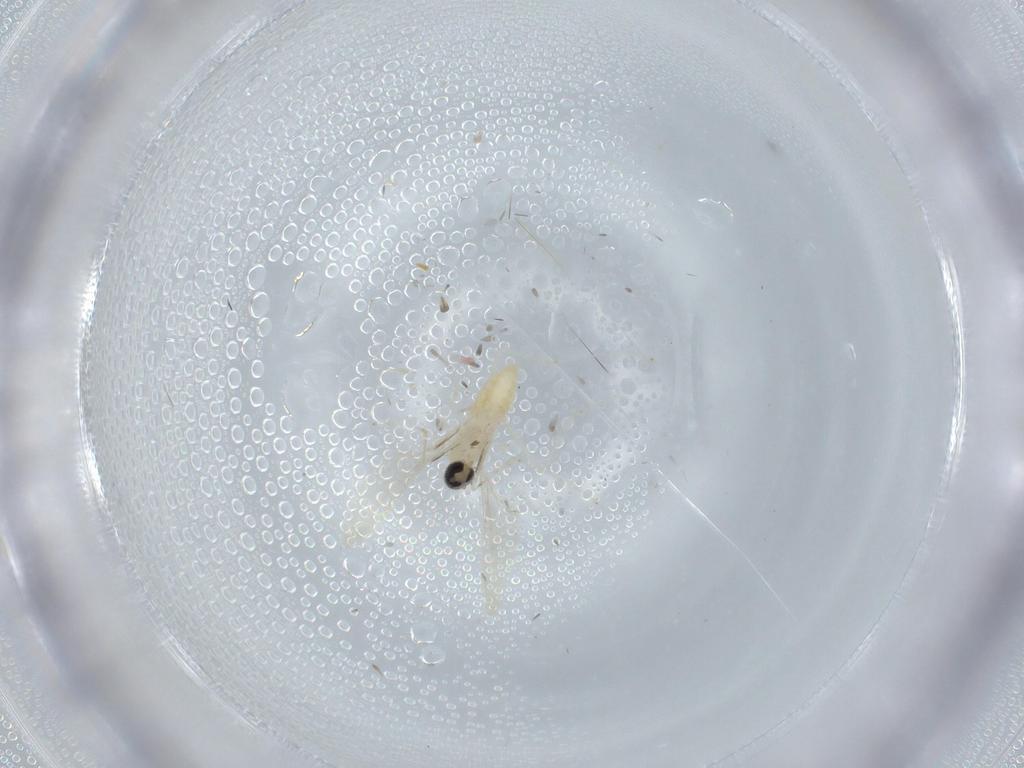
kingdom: Animalia
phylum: Arthropoda
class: Insecta
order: Diptera
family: Cecidomyiidae
